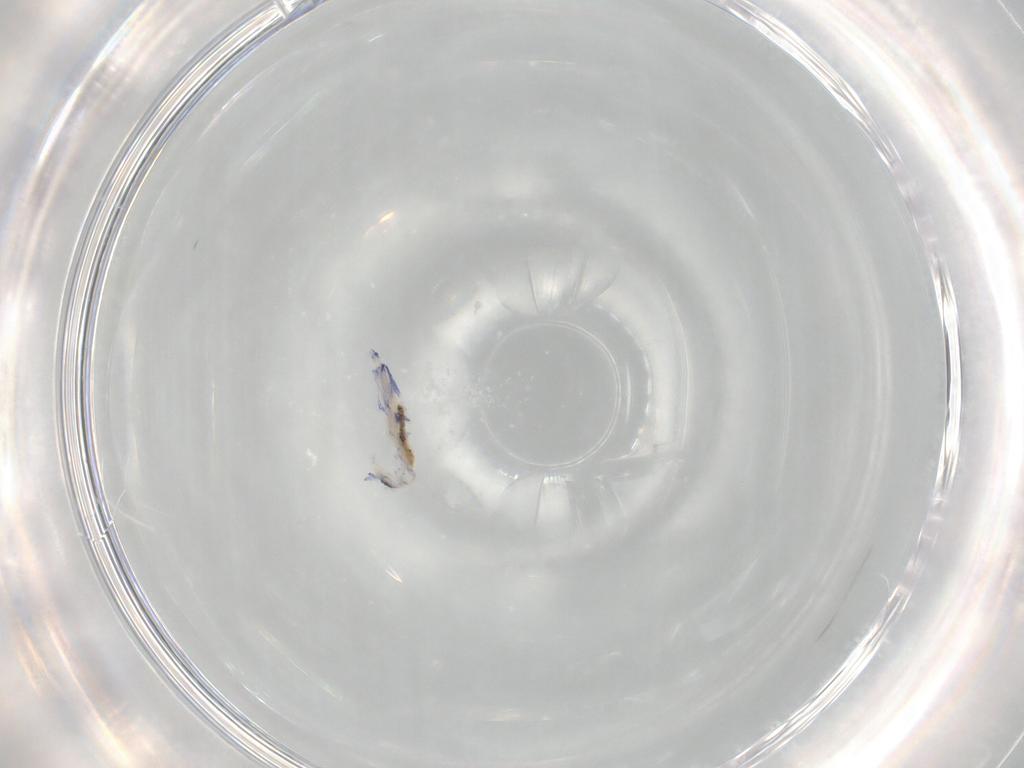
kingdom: Animalia
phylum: Arthropoda
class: Collembola
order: Entomobryomorpha
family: Entomobryidae
